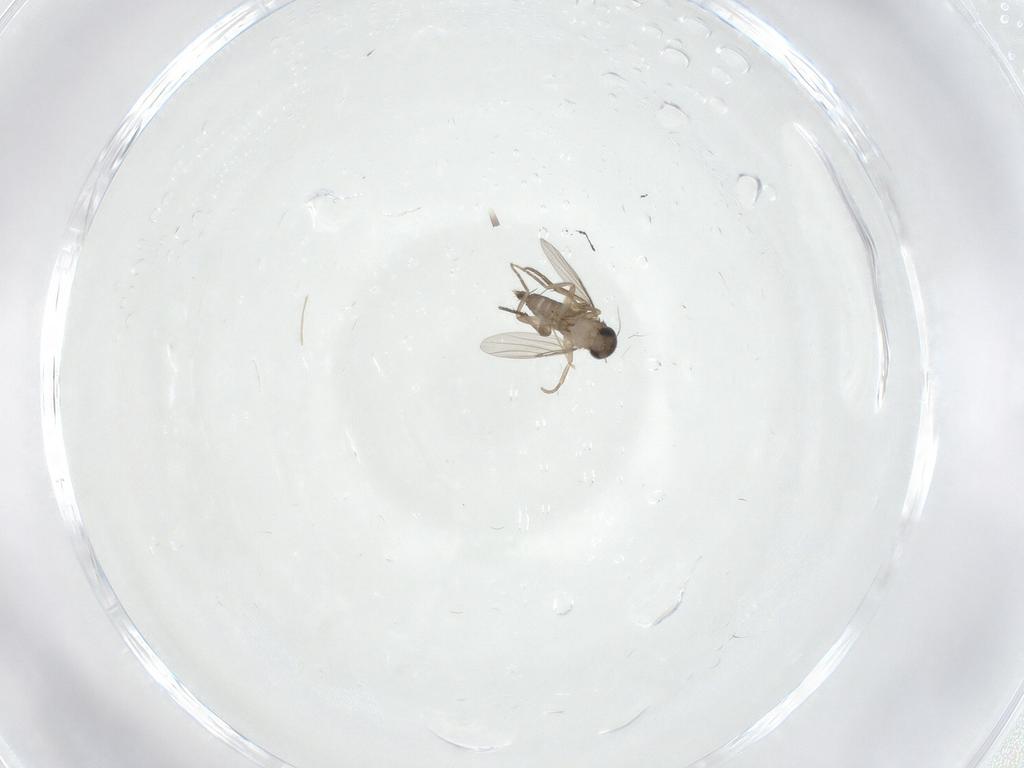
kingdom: Animalia
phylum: Arthropoda
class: Insecta
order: Diptera
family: Phoridae
